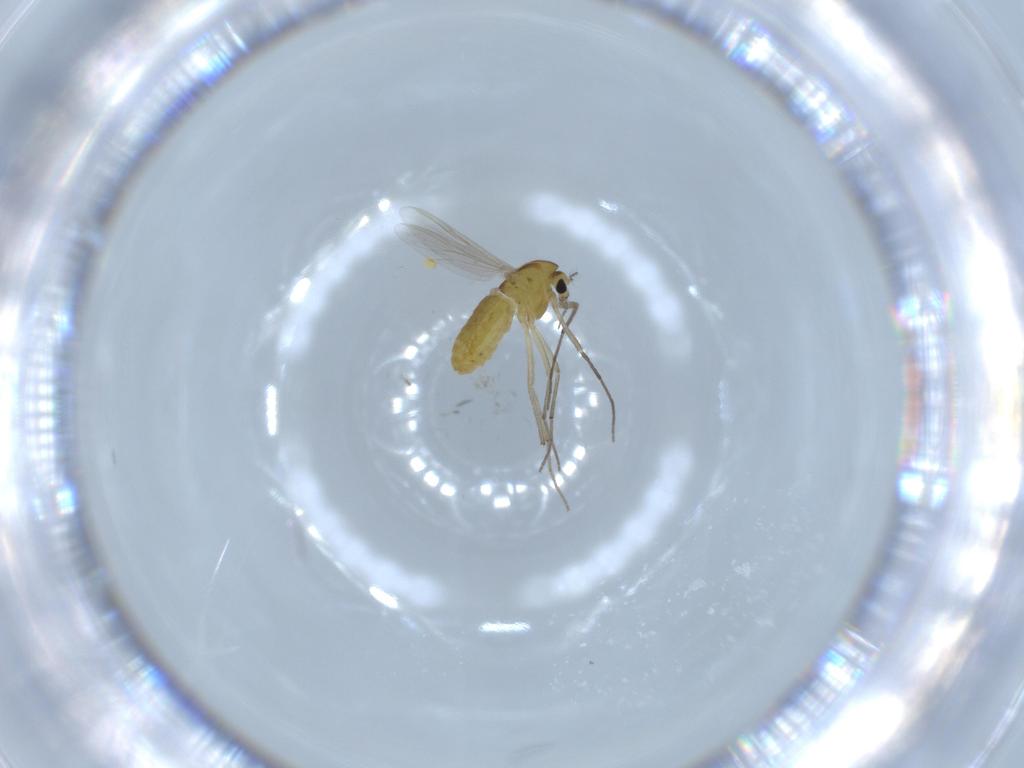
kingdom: Animalia
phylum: Arthropoda
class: Insecta
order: Diptera
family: Chironomidae
